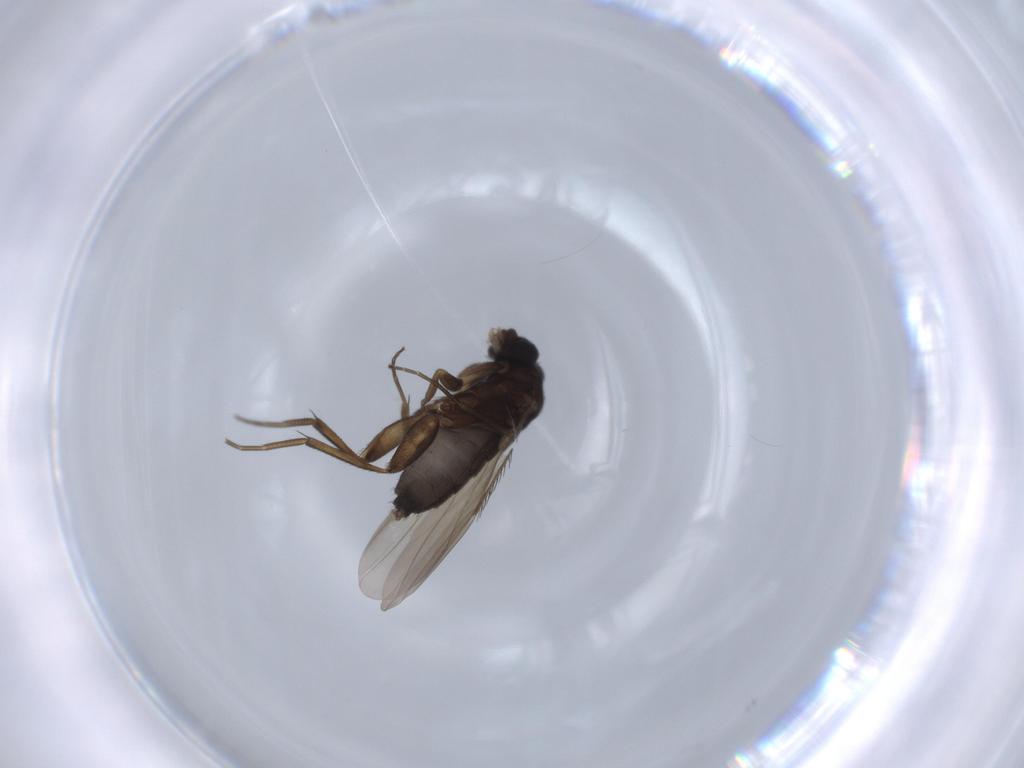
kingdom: Animalia
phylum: Arthropoda
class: Insecta
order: Diptera
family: Phoridae
